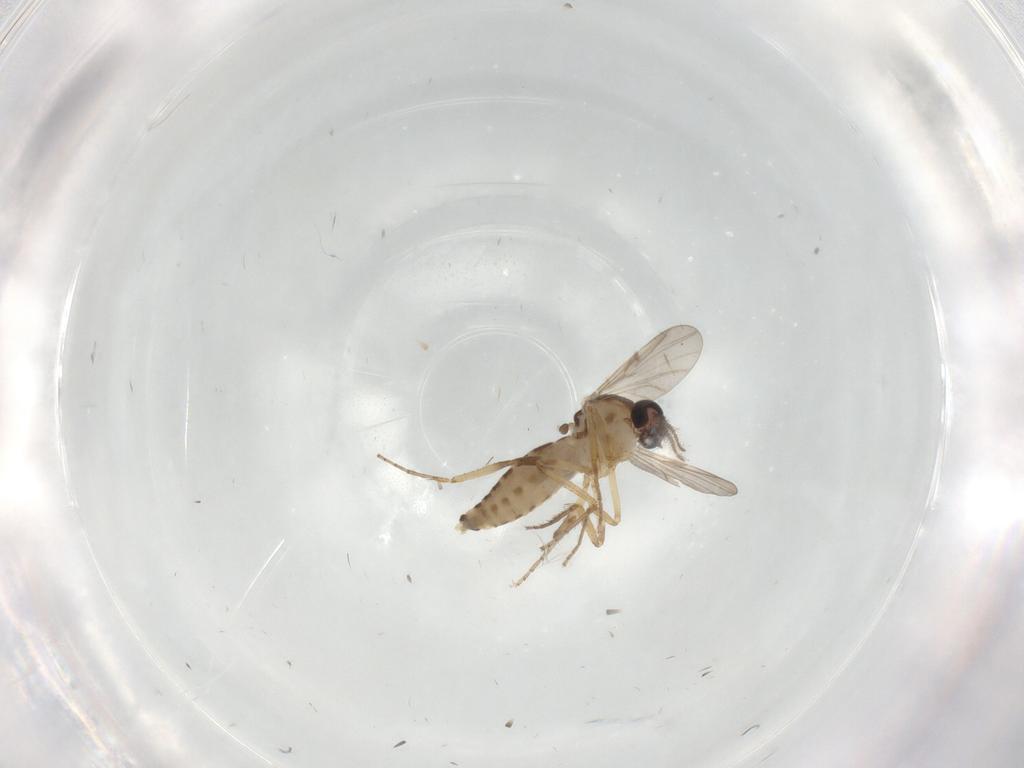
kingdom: Animalia
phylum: Arthropoda
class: Insecta
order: Diptera
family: Ceratopogonidae
